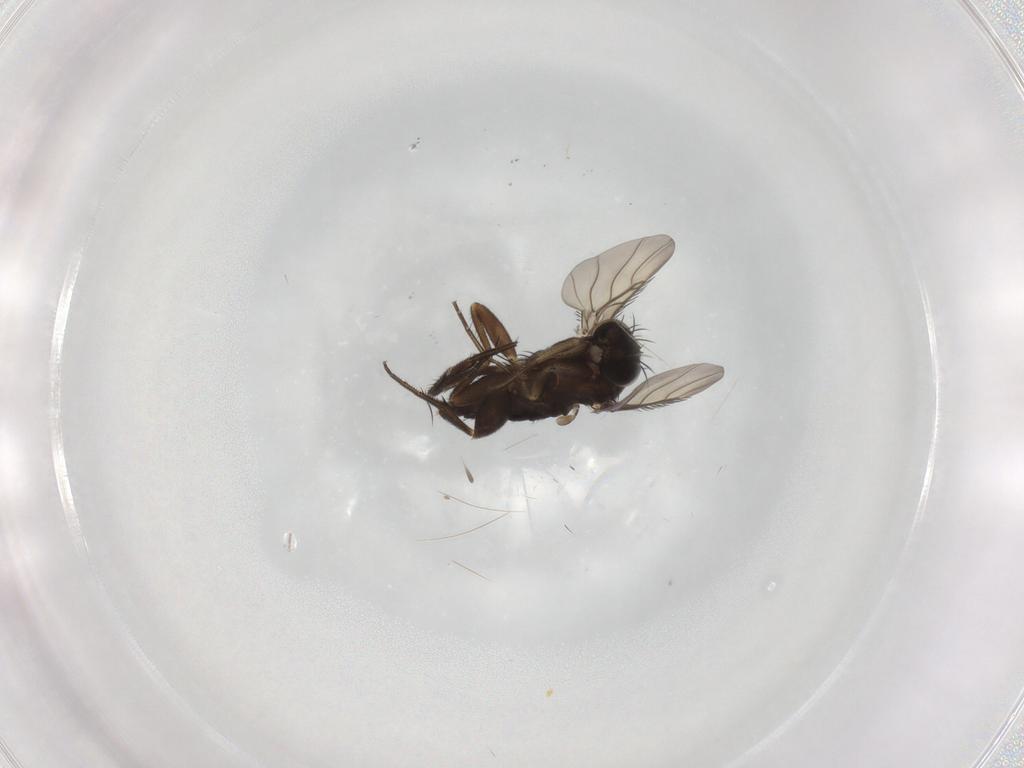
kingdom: Animalia
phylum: Arthropoda
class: Insecta
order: Diptera
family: Phoridae
